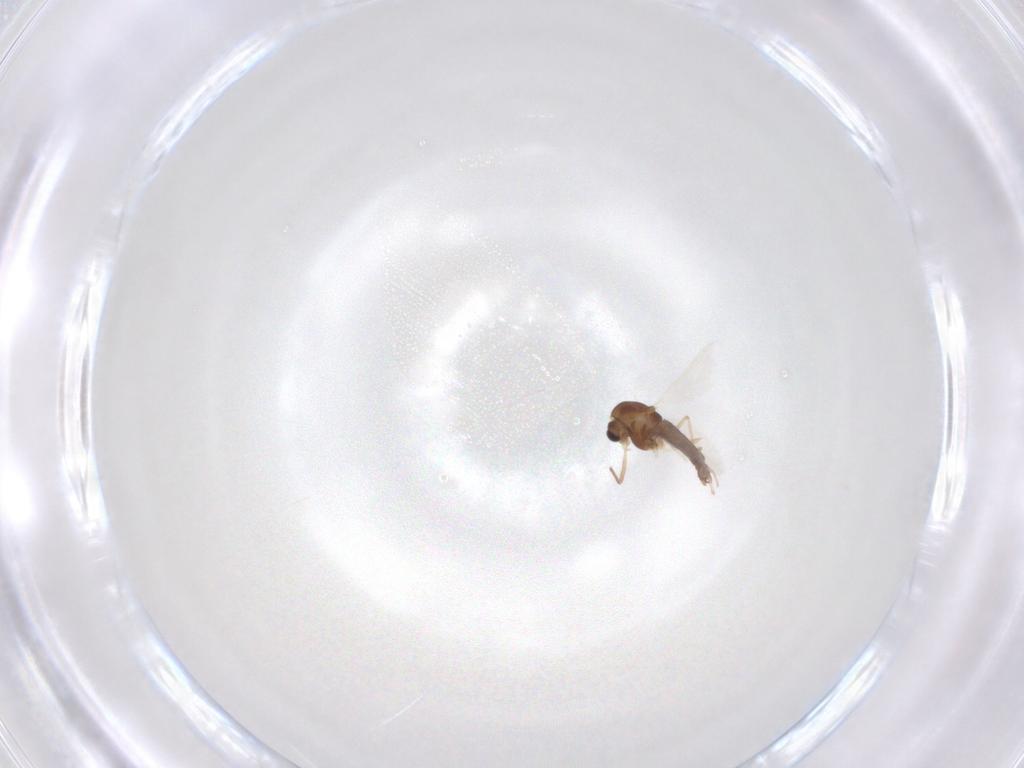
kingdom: Animalia
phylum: Arthropoda
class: Insecta
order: Diptera
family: Chironomidae
